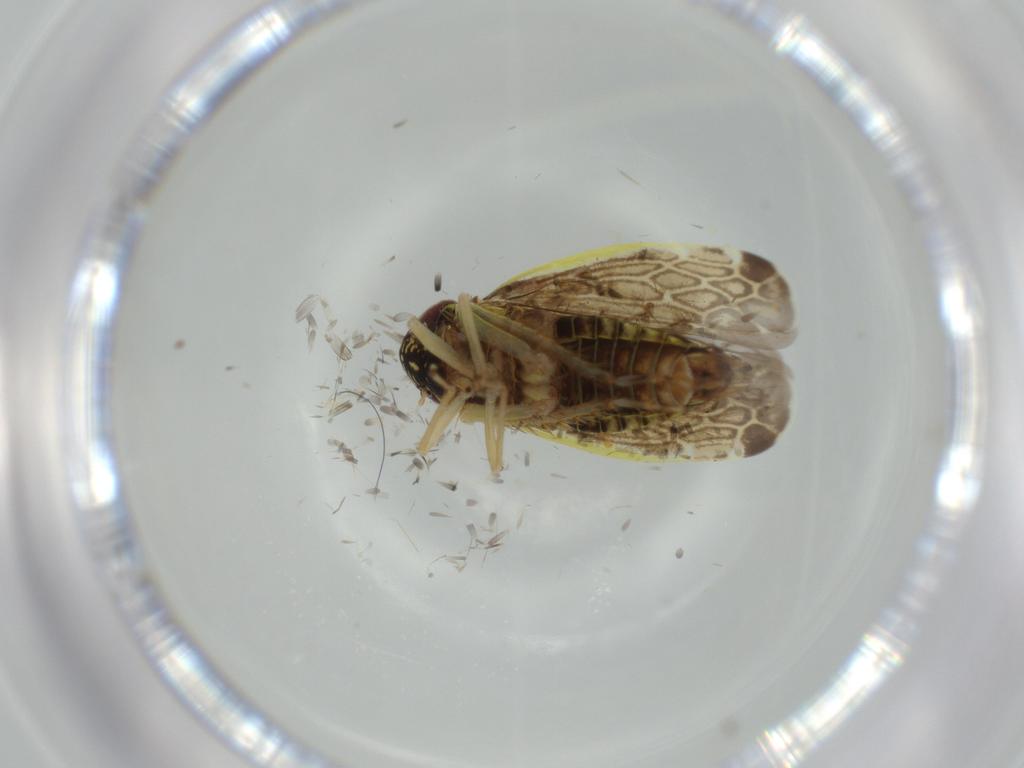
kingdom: Animalia
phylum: Arthropoda
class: Insecta
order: Hemiptera
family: Cicadellidae
